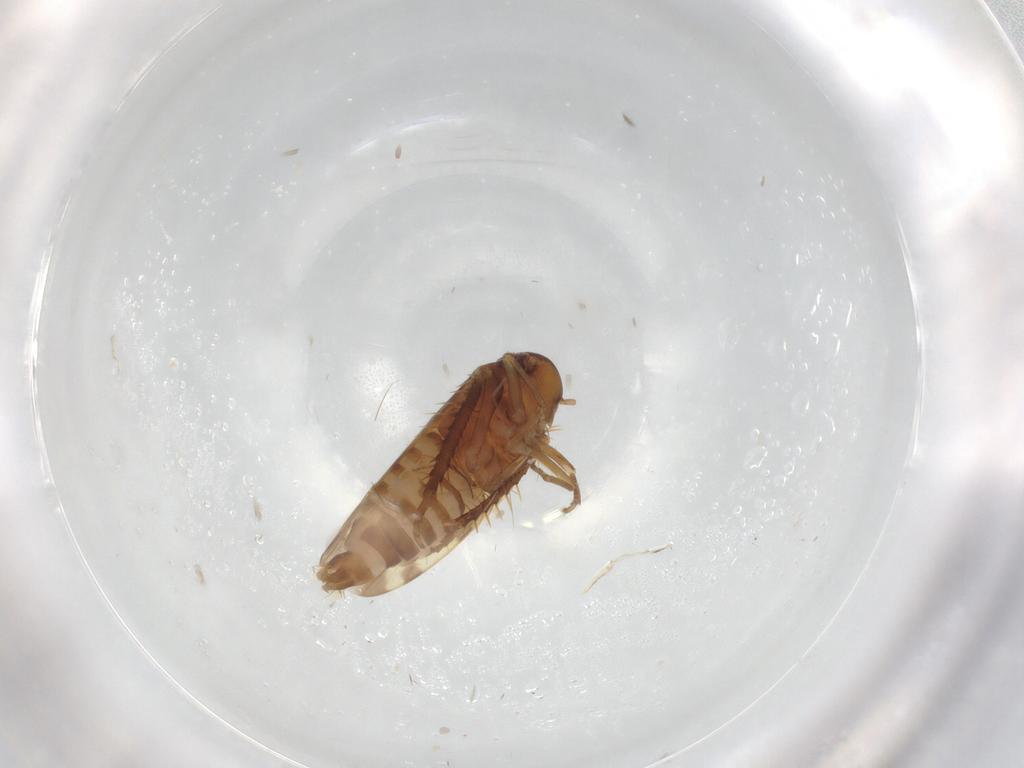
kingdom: Animalia
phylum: Arthropoda
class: Insecta
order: Hemiptera
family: Cicadellidae
